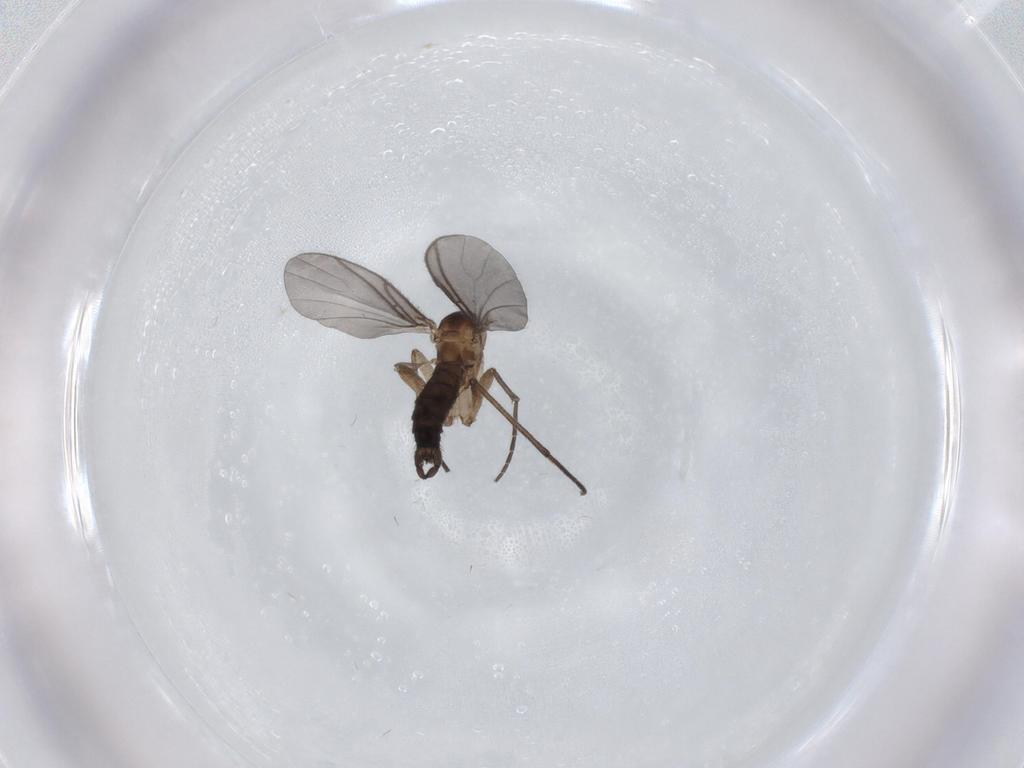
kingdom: Animalia
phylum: Arthropoda
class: Insecta
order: Diptera
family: Sciaridae
